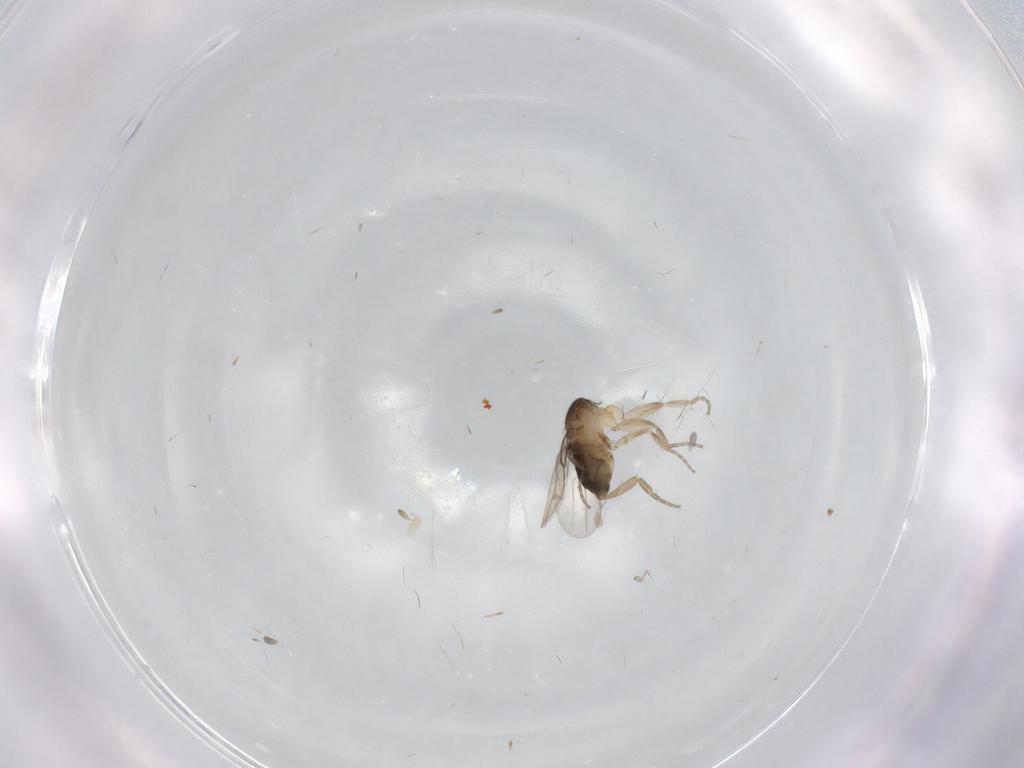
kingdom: Animalia
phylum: Arthropoda
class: Insecta
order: Diptera
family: Phoridae
